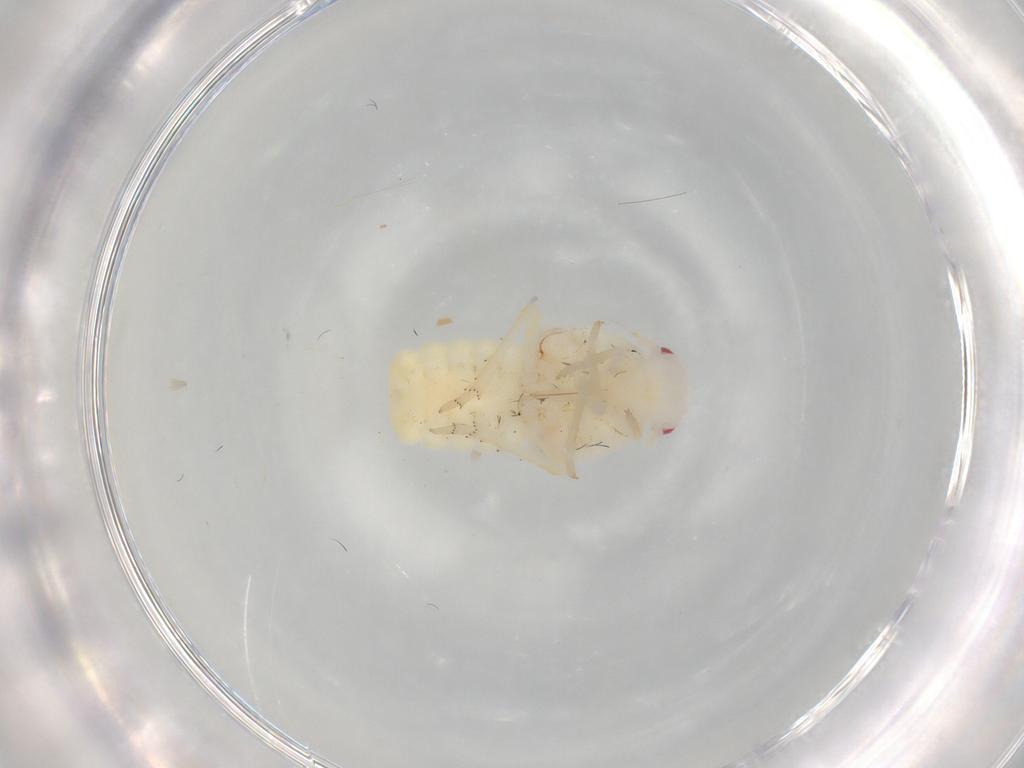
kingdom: Animalia
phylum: Arthropoda
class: Insecta
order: Hemiptera
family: Flatidae
